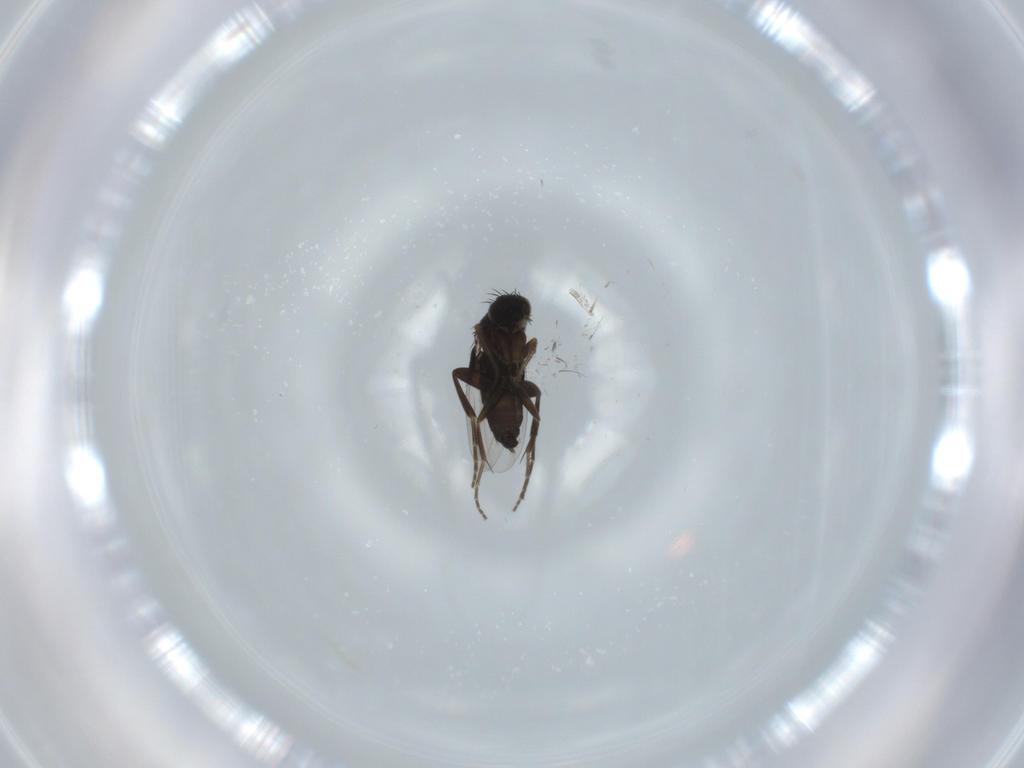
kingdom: Animalia
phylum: Arthropoda
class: Insecta
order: Diptera
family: Phoridae
